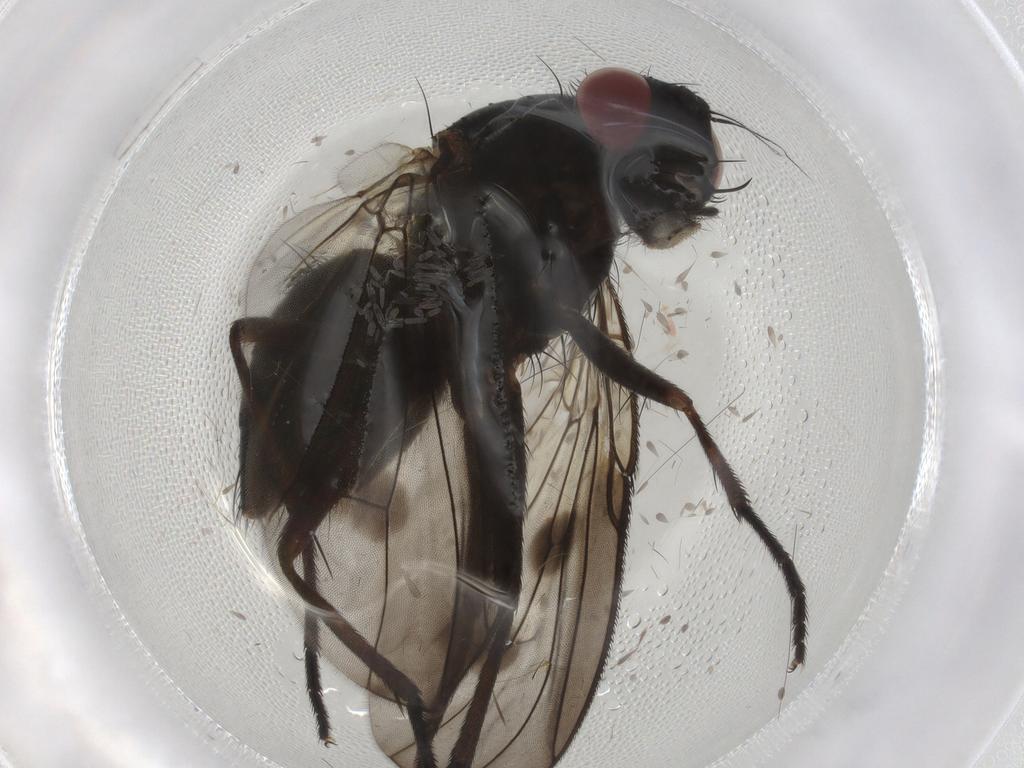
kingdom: Animalia
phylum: Arthropoda
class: Insecta
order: Diptera
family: Muscidae
